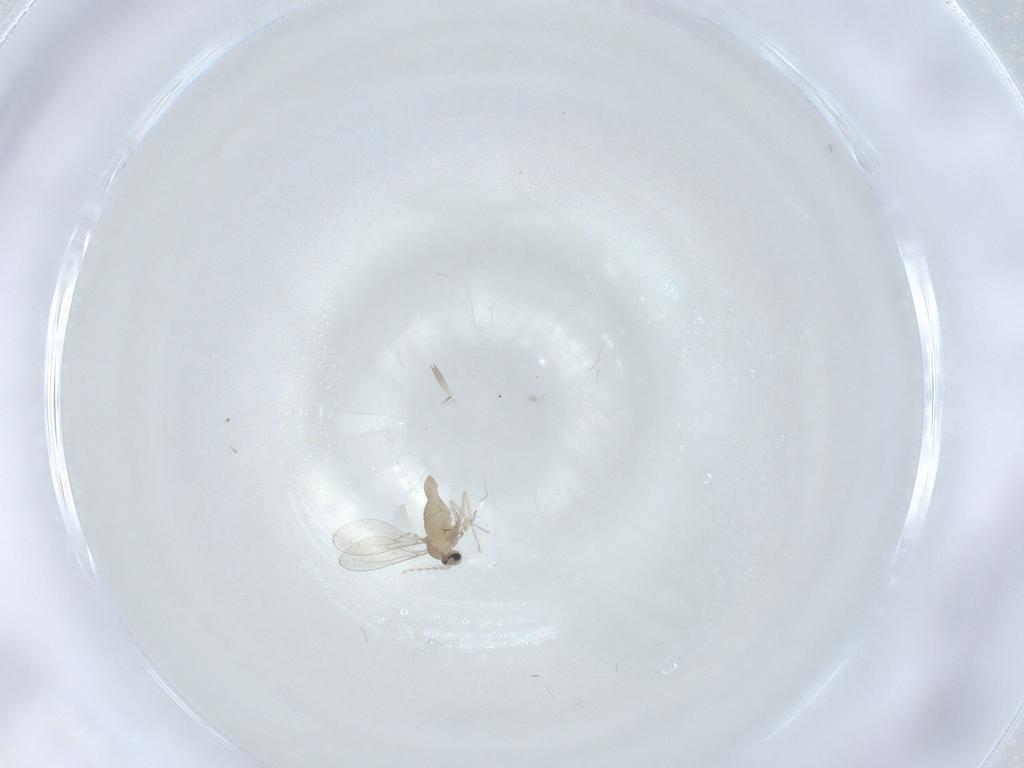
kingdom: Animalia
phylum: Arthropoda
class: Insecta
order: Diptera
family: Cecidomyiidae
